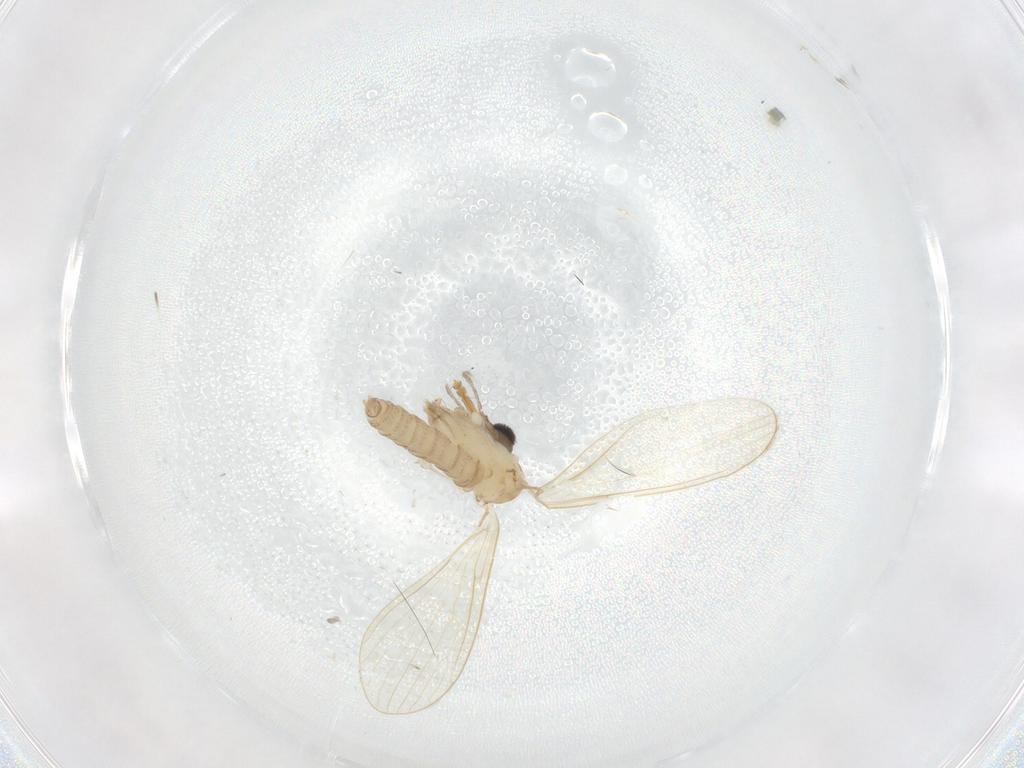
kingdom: Animalia
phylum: Arthropoda
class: Insecta
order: Diptera
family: Psychodidae
